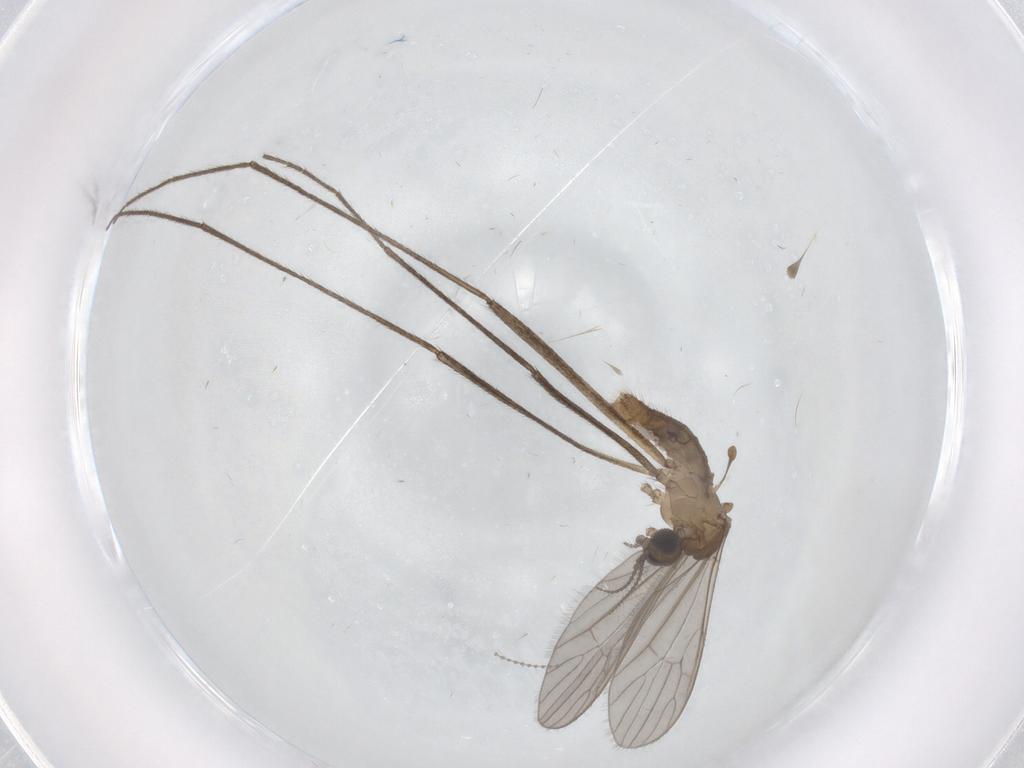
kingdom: Animalia
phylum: Arthropoda
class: Insecta
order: Diptera
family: Limoniidae
